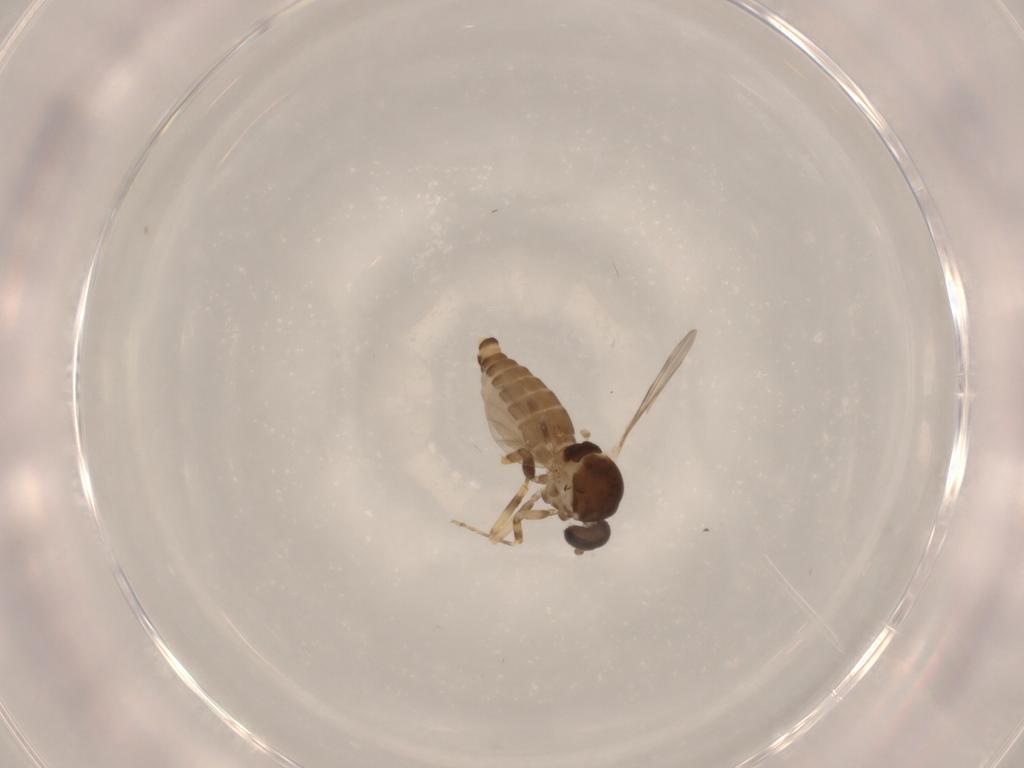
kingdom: Animalia
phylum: Arthropoda
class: Insecta
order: Diptera
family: Ceratopogonidae
